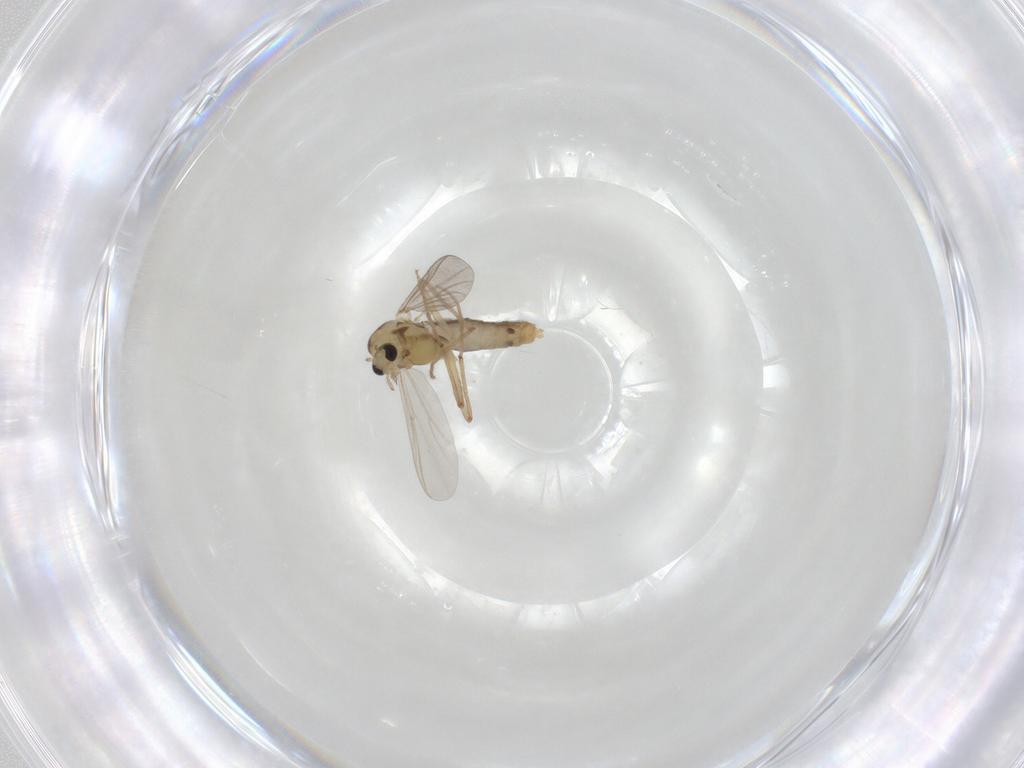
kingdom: Animalia
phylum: Arthropoda
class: Insecta
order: Diptera
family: Chironomidae
